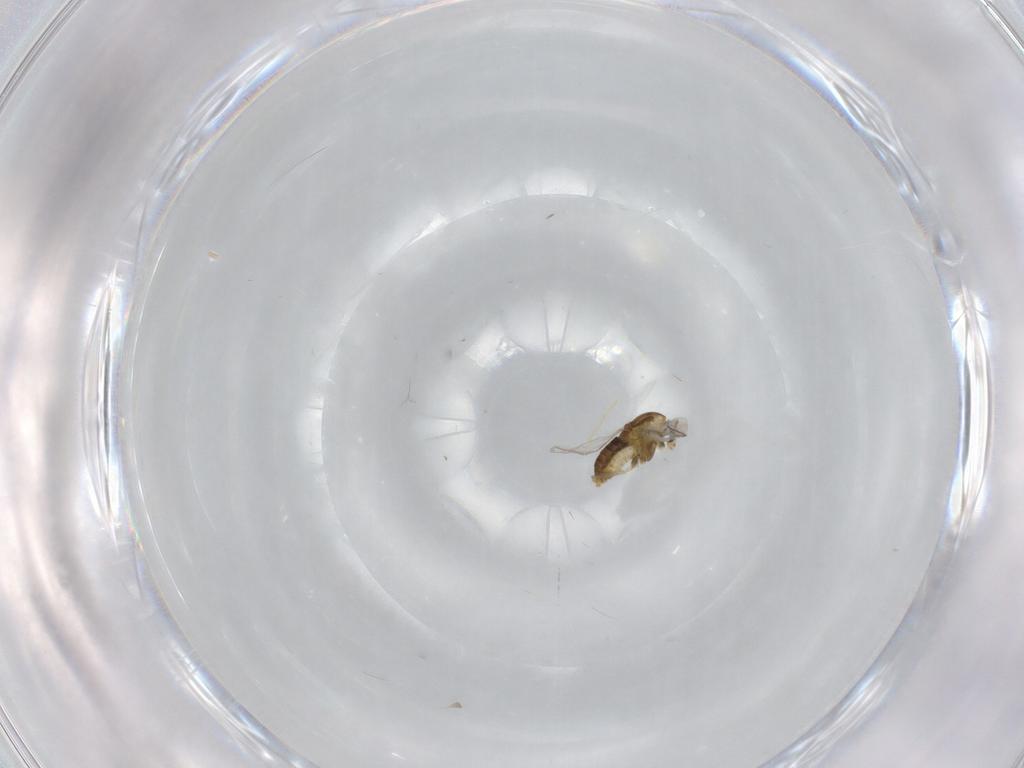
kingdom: Animalia
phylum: Arthropoda
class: Insecta
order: Diptera
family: Chironomidae
